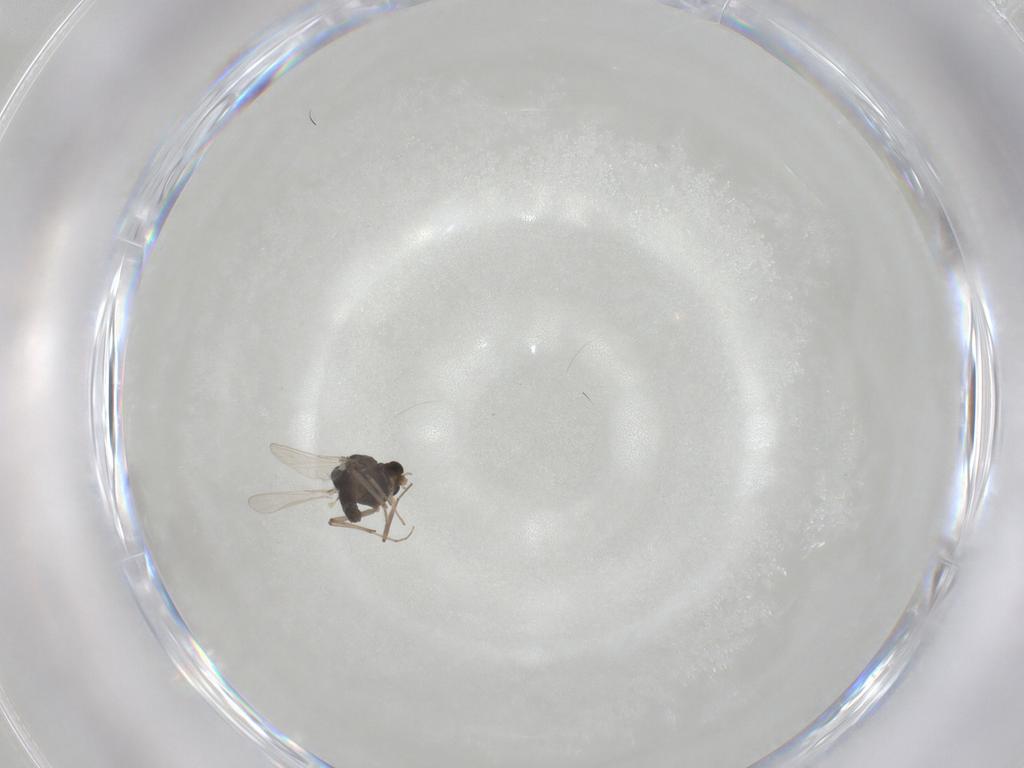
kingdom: Animalia
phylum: Arthropoda
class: Insecta
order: Diptera
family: Chironomidae
